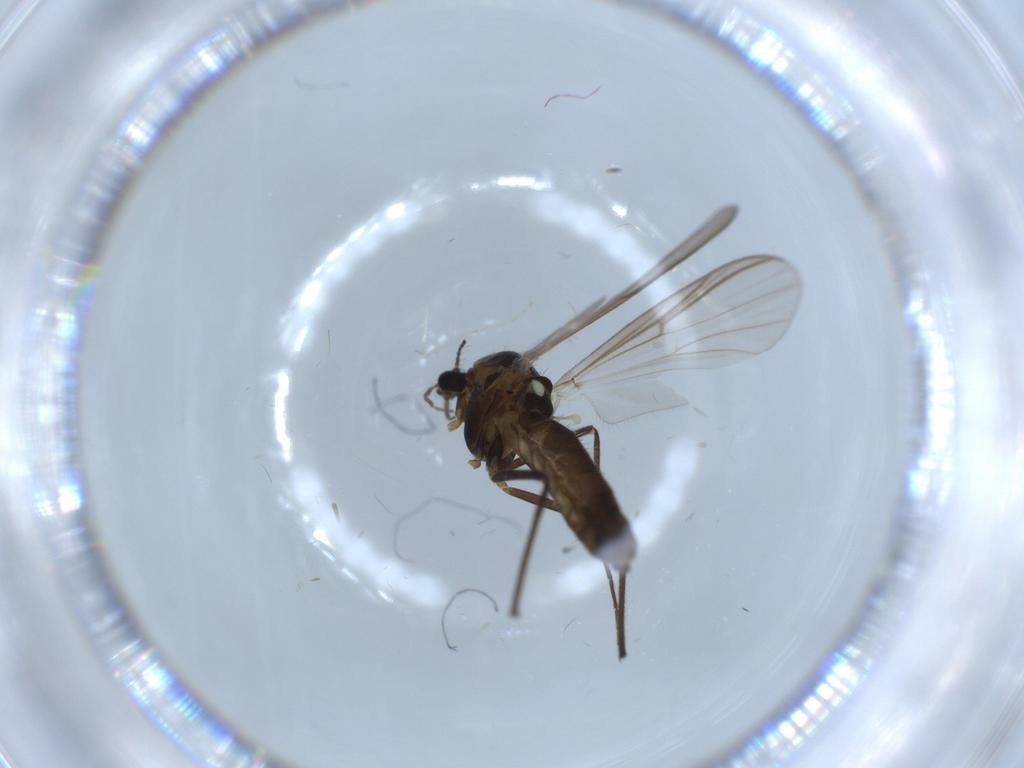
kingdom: Animalia
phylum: Arthropoda
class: Insecta
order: Diptera
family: Chironomidae
